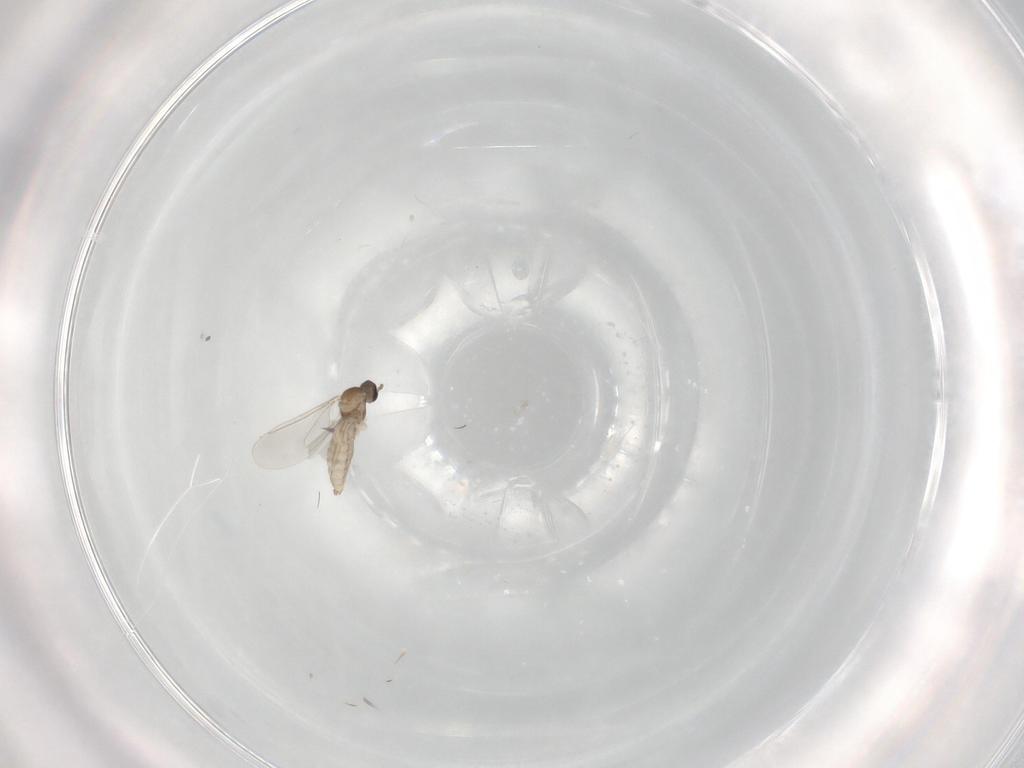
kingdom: Animalia
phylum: Arthropoda
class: Insecta
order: Diptera
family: Cecidomyiidae
